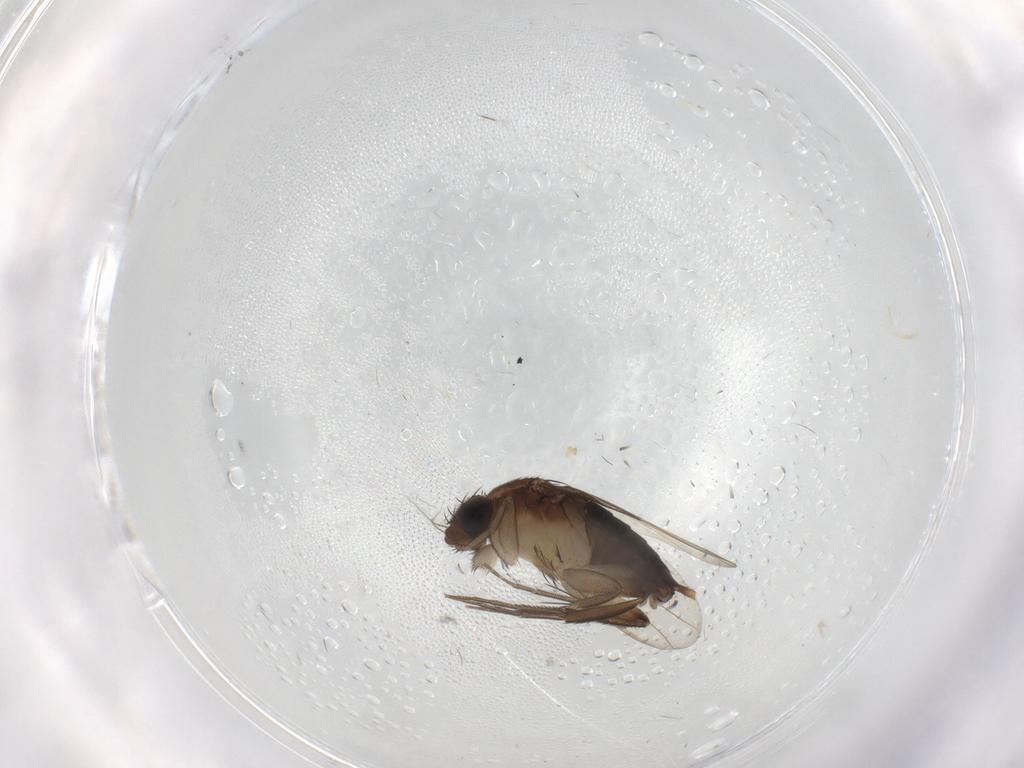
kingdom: Animalia
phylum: Arthropoda
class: Insecta
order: Diptera
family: Phoridae
